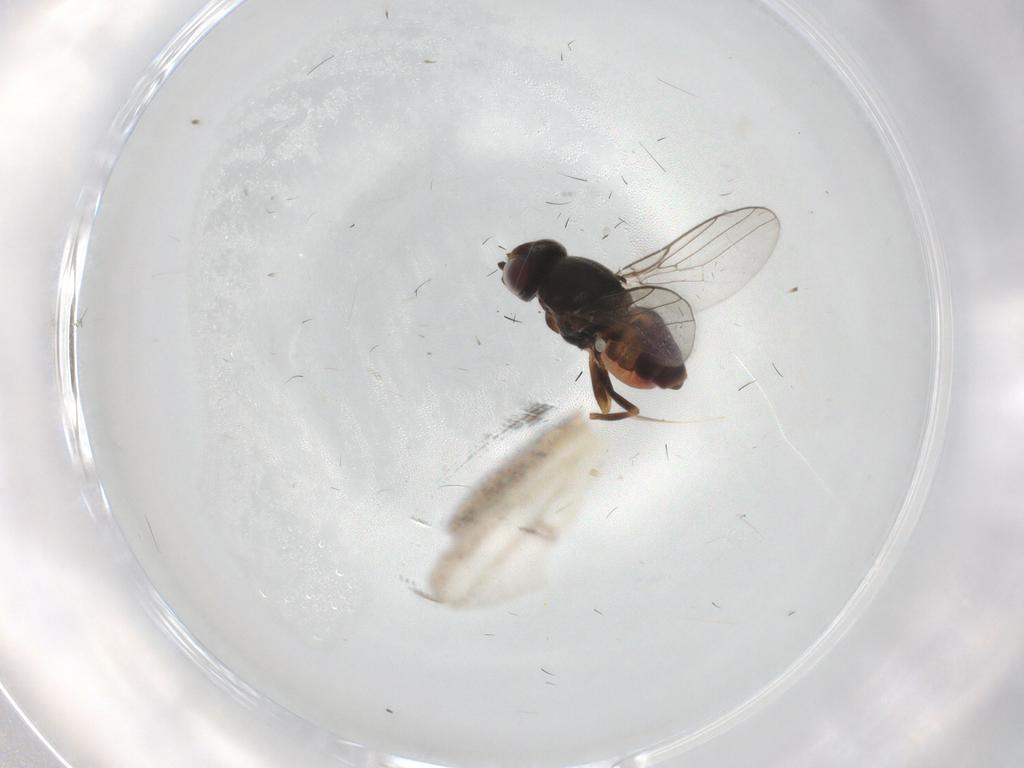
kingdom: Animalia
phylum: Arthropoda
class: Insecta
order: Diptera
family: Chloropidae
